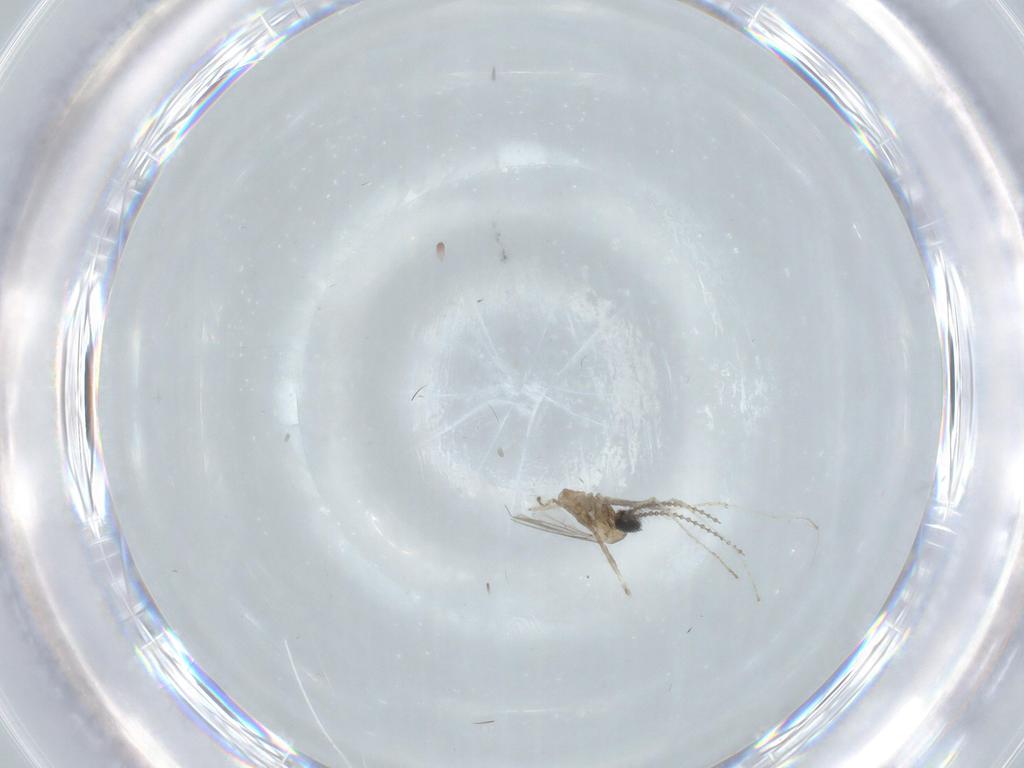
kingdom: Animalia
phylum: Arthropoda
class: Insecta
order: Diptera
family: Cecidomyiidae
